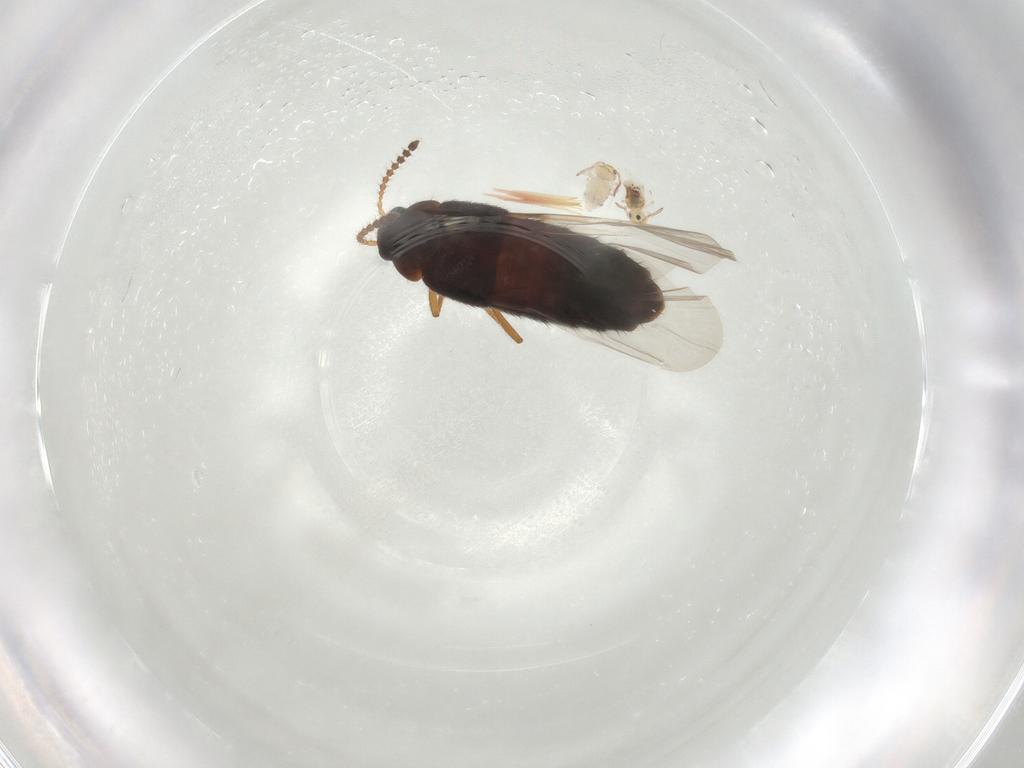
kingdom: Animalia
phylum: Arthropoda
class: Insecta
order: Coleoptera
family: Staphylinidae
